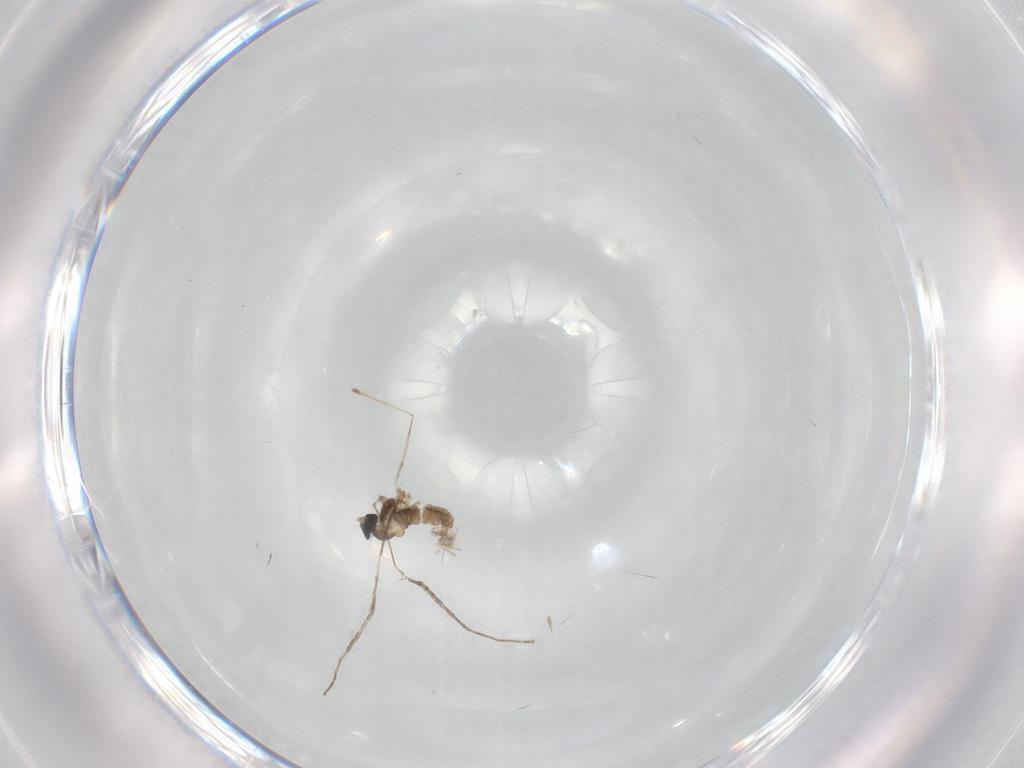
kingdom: Animalia
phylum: Arthropoda
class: Insecta
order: Diptera
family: Cecidomyiidae
